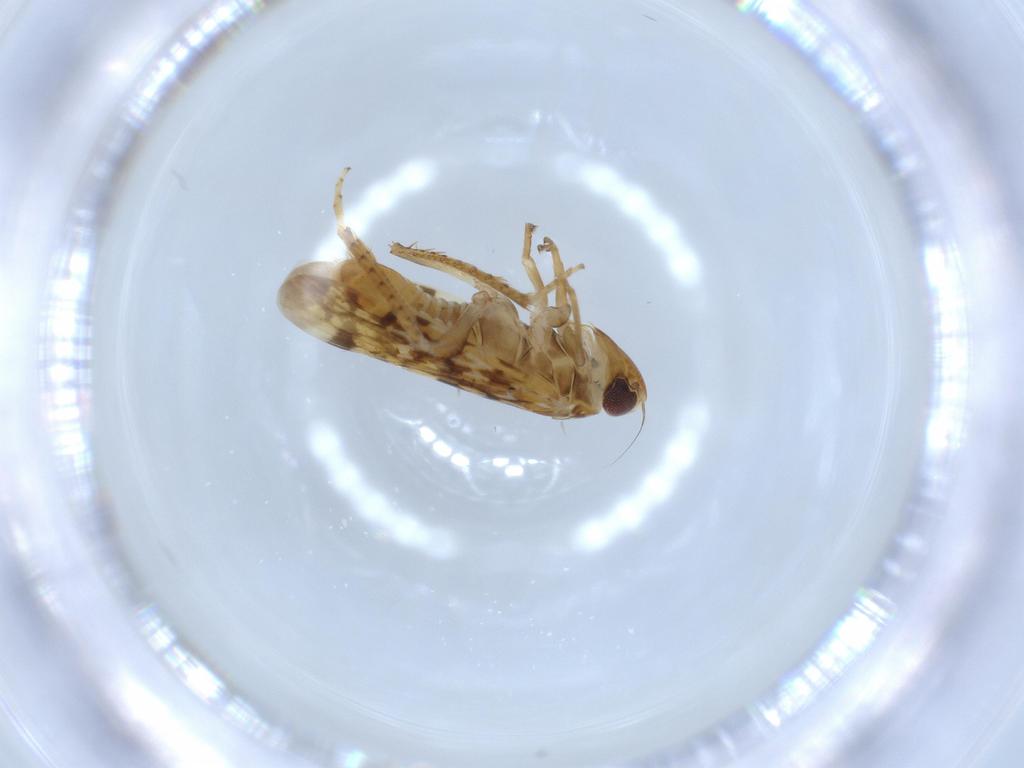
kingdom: Animalia
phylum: Arthropoda
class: Insecta
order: Hemiptera
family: Cicadellidae
